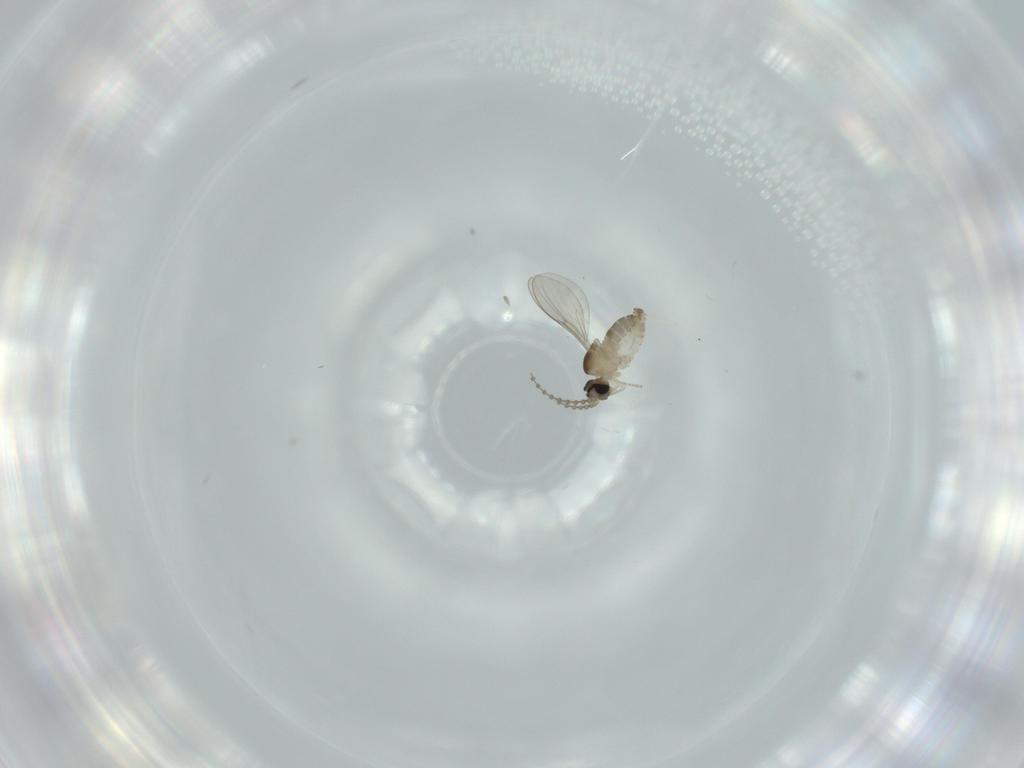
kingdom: Animalia
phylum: Arthropoda
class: Insecta
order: Diptera
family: Cecidomyiidae
